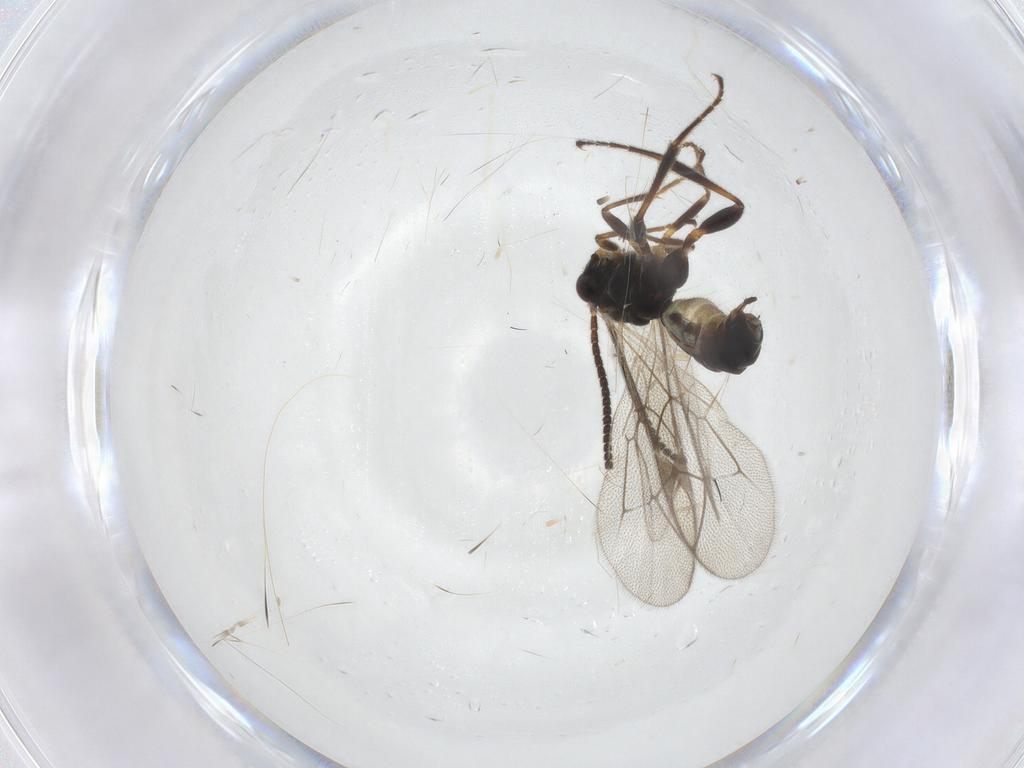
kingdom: Animalia
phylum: Arthropoda
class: Insecta
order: Hymenoptera
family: Ichneumonidae
